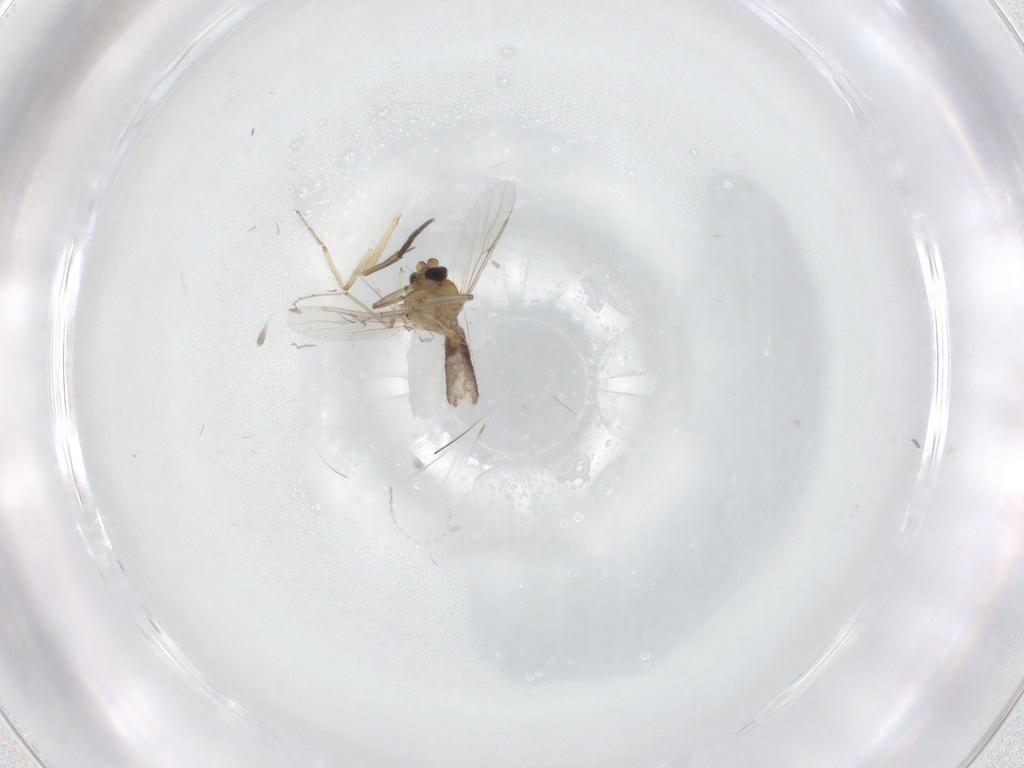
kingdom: Animalia
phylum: Arthropoda
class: Insecta
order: Diptera
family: Mycetophilidae
